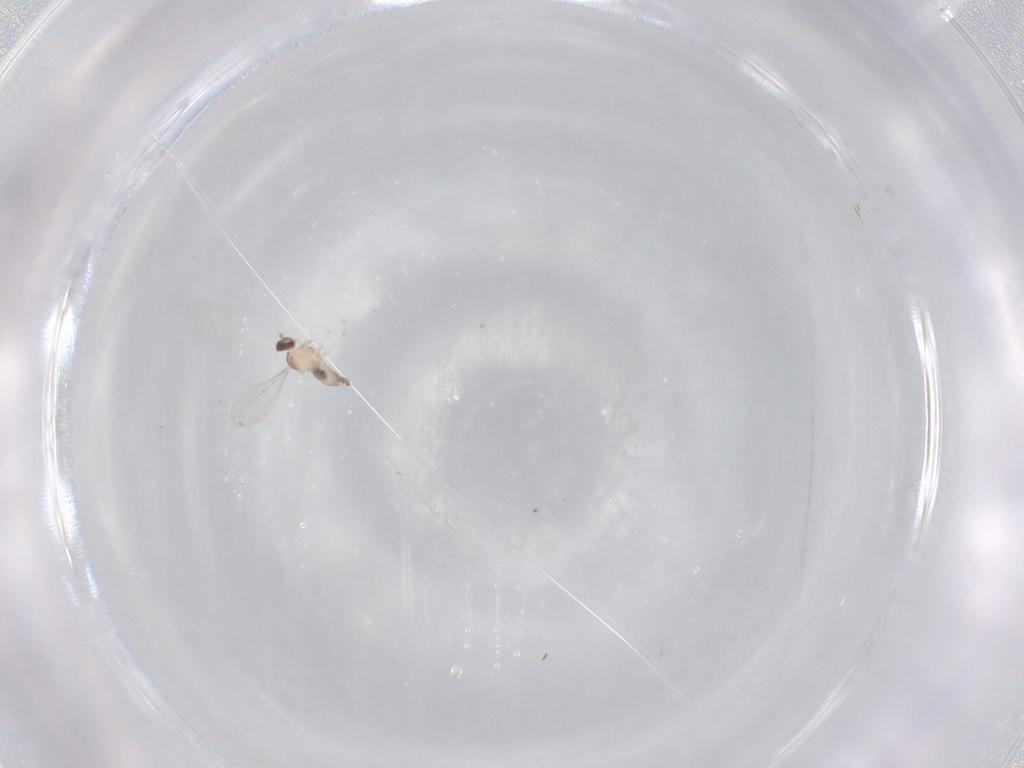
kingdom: Animalia
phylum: Arthropoda
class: Insecta
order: Diptera
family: Cecidomyiidae
